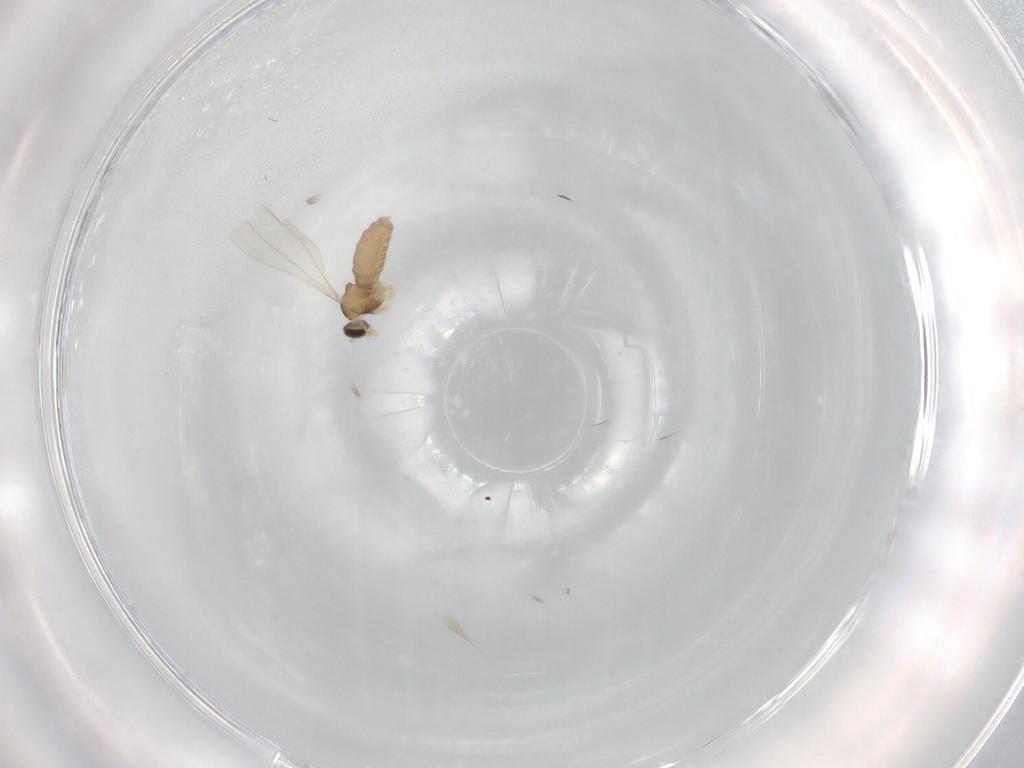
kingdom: Animalia
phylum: Arthropoda
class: Insecta
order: Diptera
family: Cecidomyiidae
